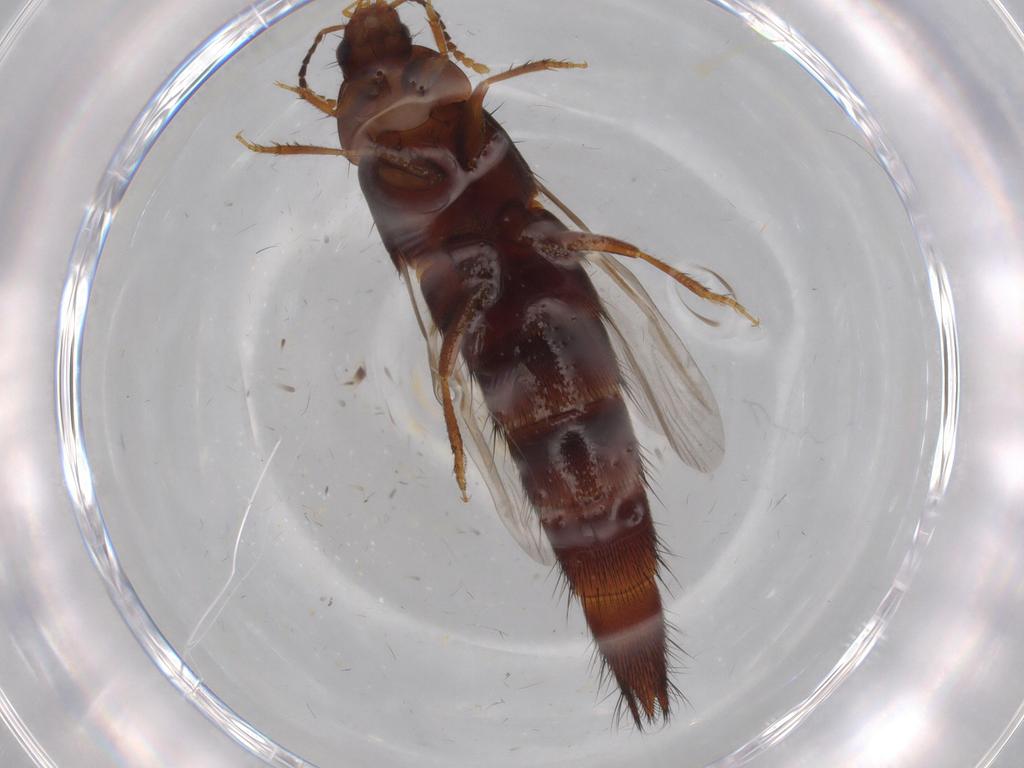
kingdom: Animalia
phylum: Arthropoda
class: Insecta
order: Coleoptera
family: Staphylinidae
